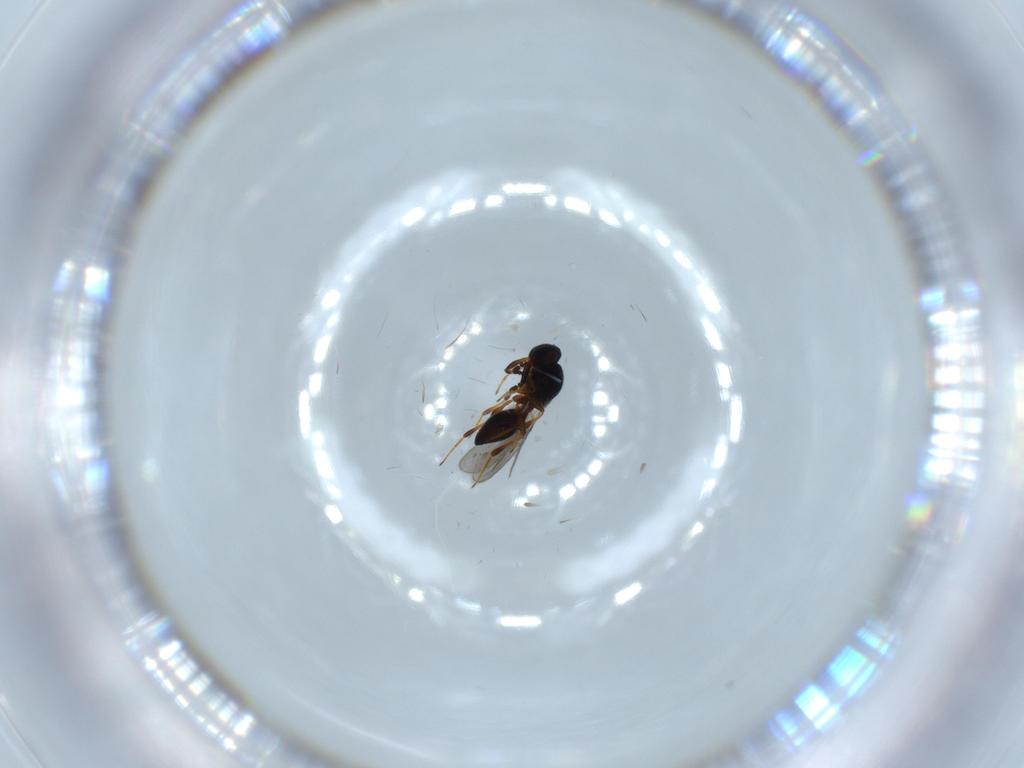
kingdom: Animalia
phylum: Arthropoda
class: Insecta
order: Hymenoptera
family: Platygastridae
